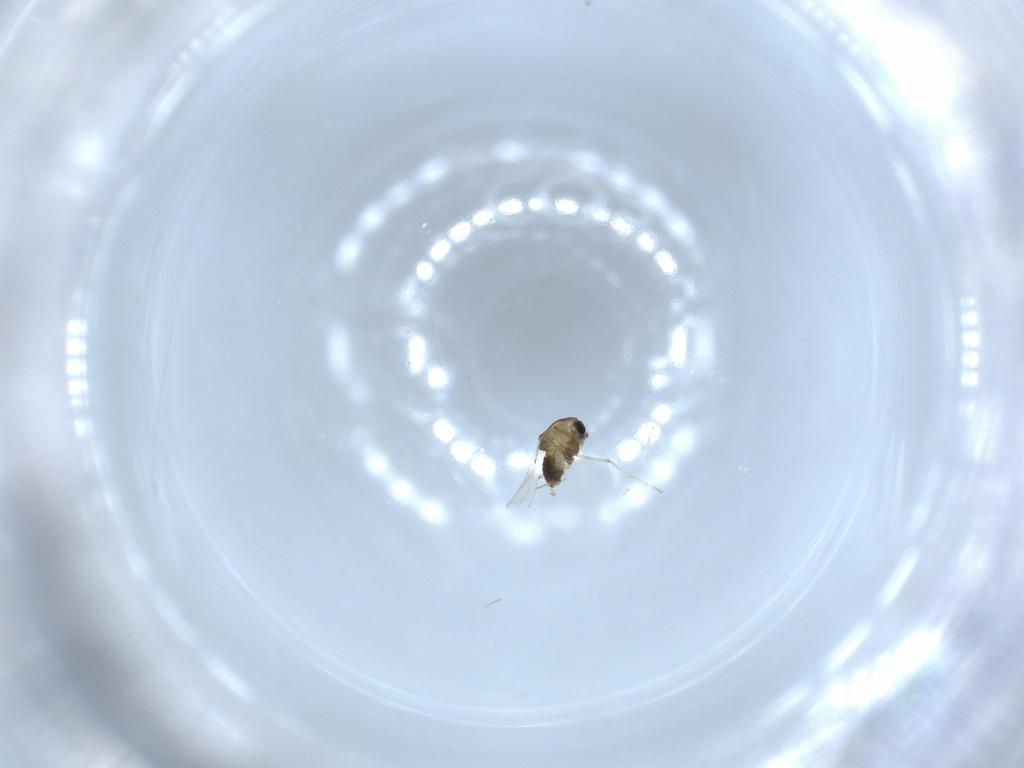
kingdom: Animalia
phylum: Arthropoda
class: Insecta
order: Diptera
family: Chironomidae
